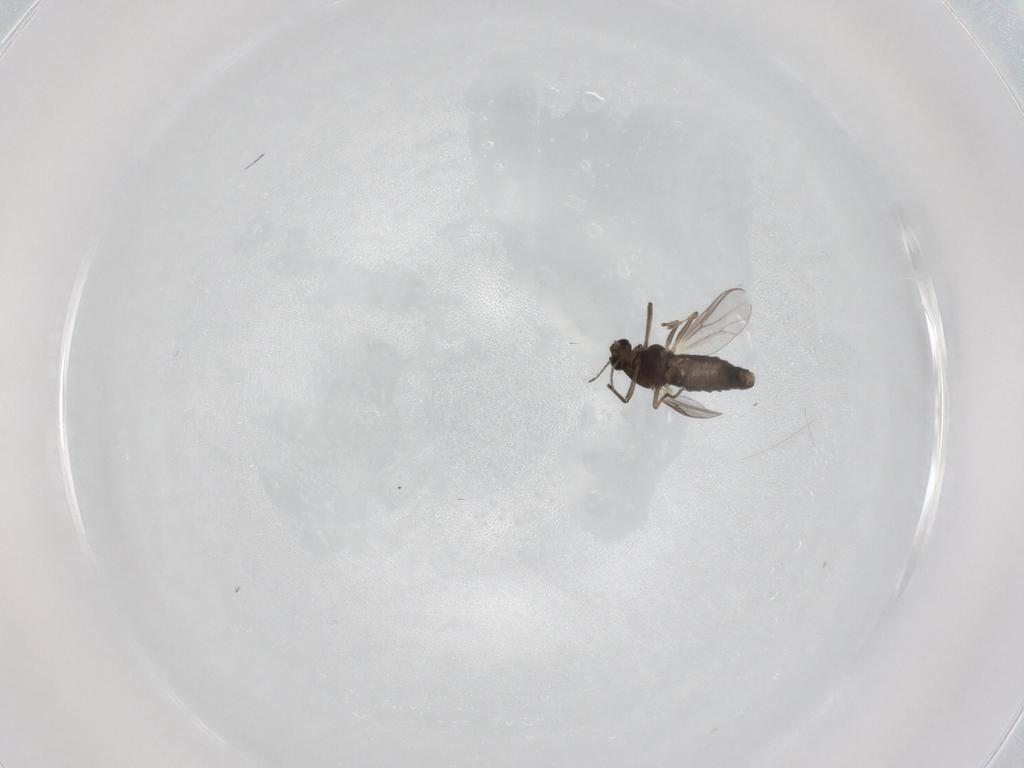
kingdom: Animalia
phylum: Arthropoda
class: Insecta
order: Diptera
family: Chironomidae
